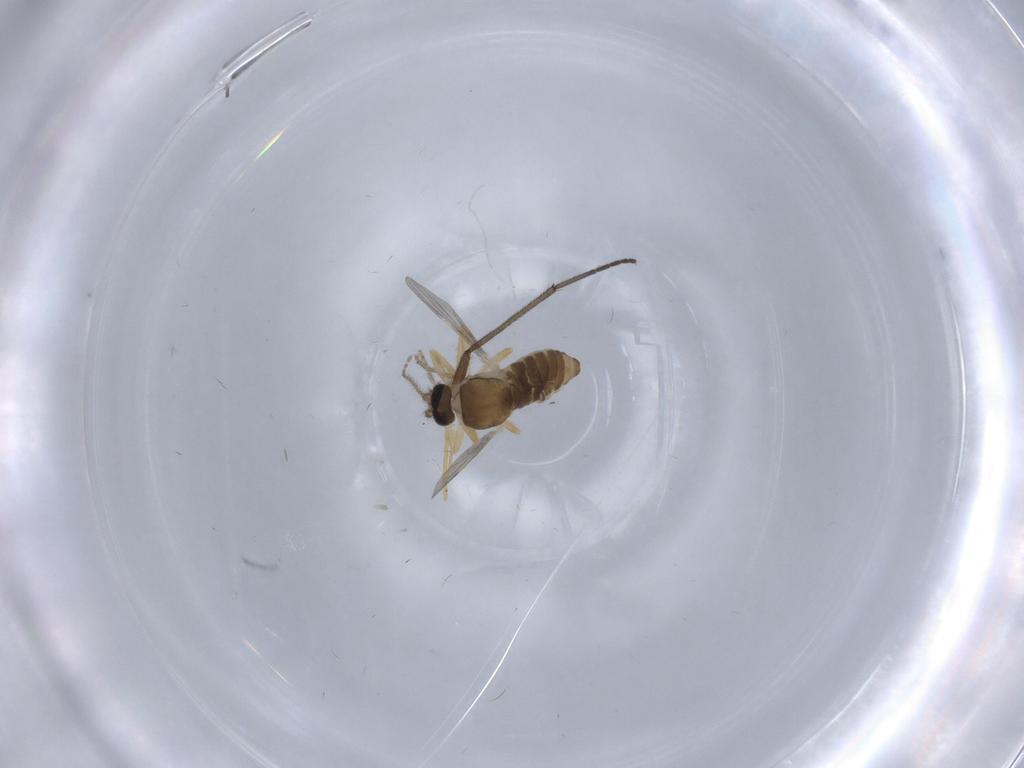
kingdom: Animalia
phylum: Arthropoda
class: Insecta
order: Diptera
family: Ceratopogonidae
